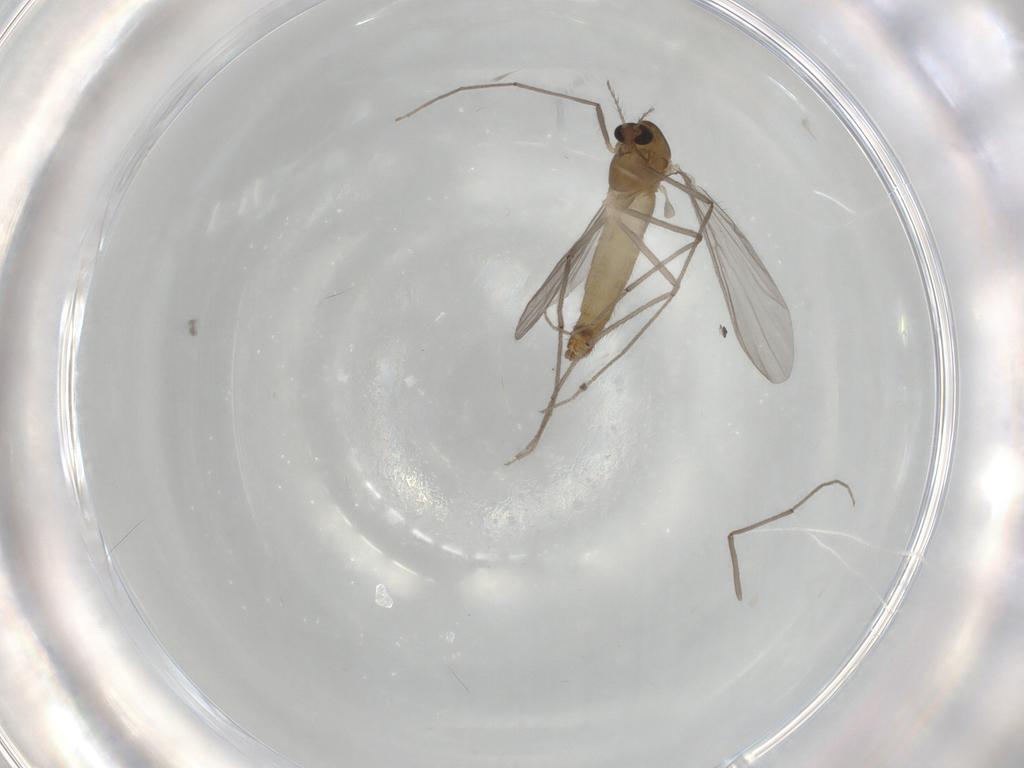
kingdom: Animalia
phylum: Arthropoda
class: Insecta
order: Diptera
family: Chironomidae
